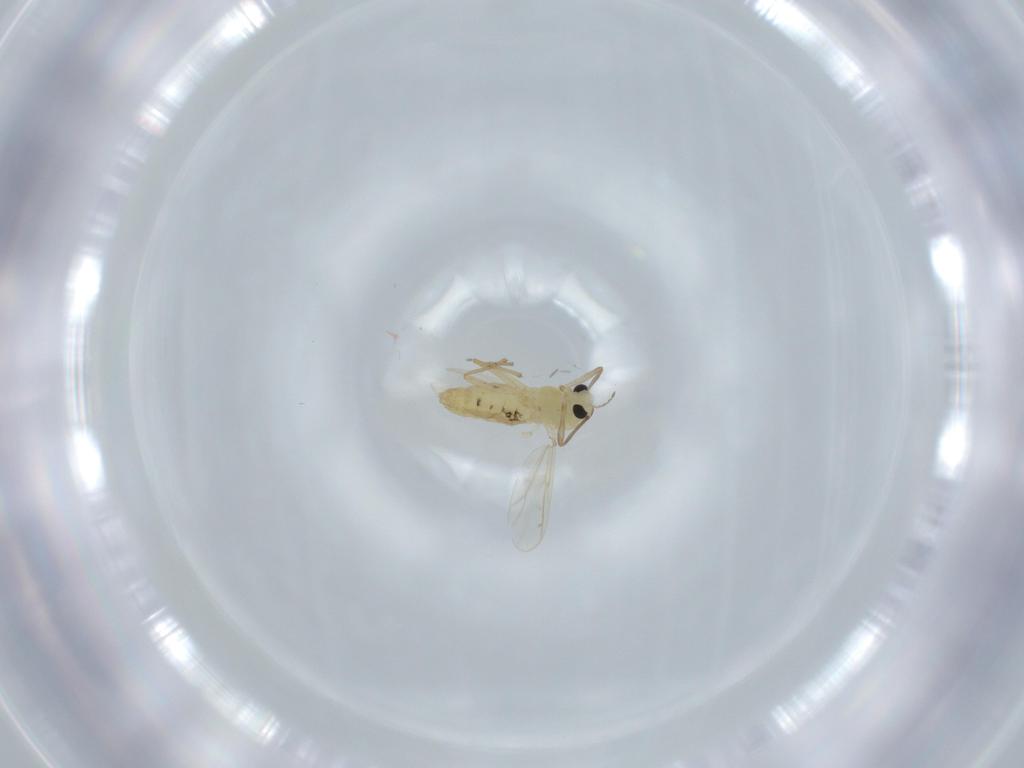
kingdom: Animalia
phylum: Arthropoda
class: Insecta
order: Diptera
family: Chironomidae
